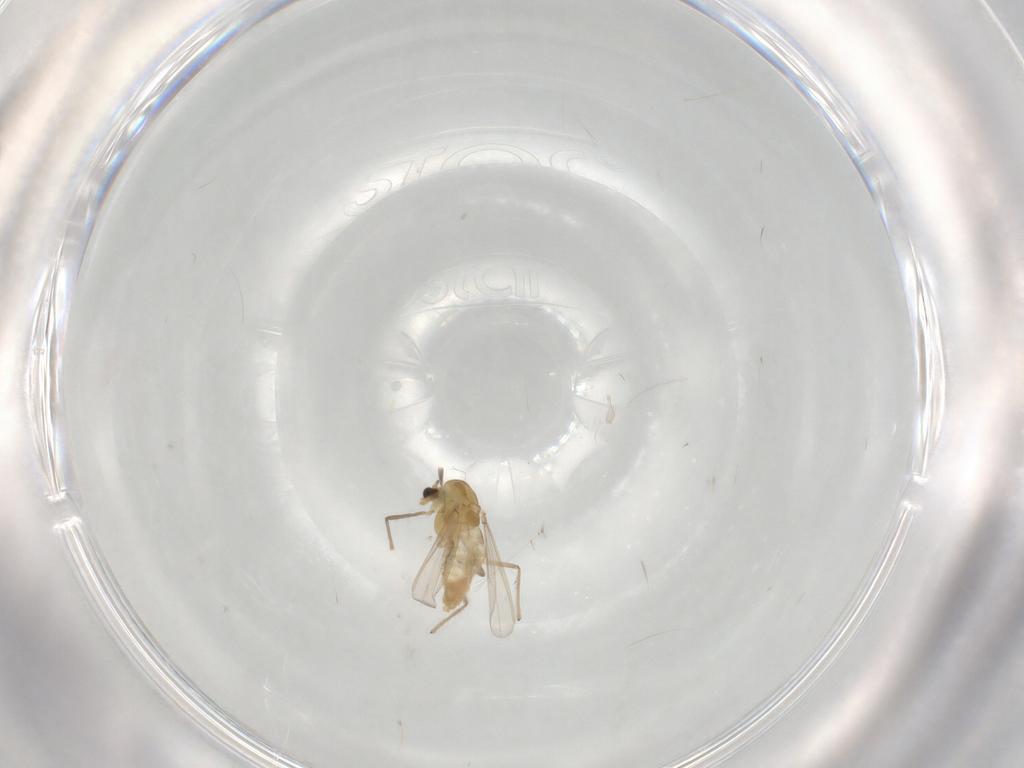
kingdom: Animalia
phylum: Arthropoda
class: Insecta
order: Diptera
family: Chironomidae
